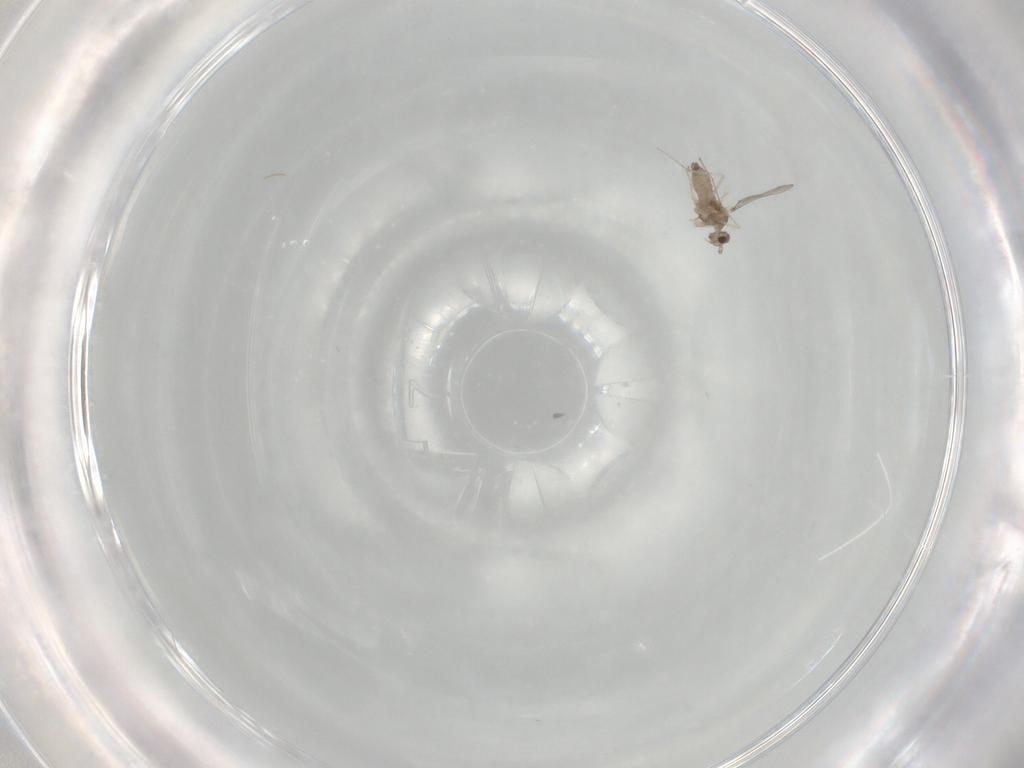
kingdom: Animalia
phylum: Arthropoda
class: Insecta
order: Diptera
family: Cecidomyiidae
